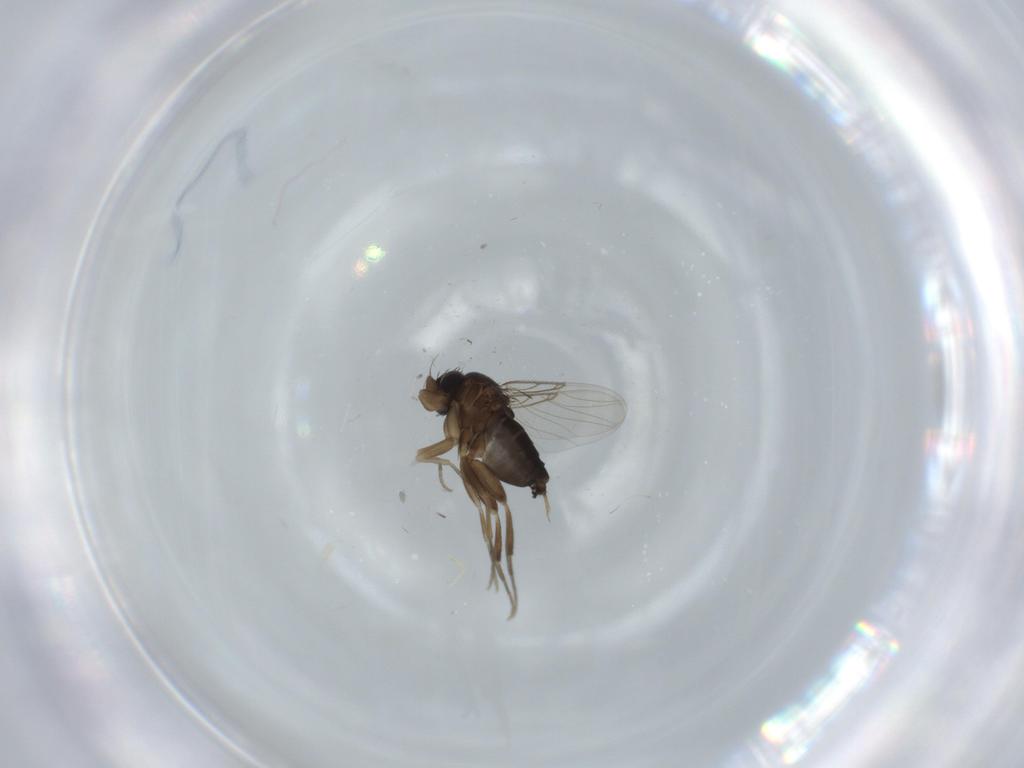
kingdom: Animalia
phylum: Arthropoda
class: Insecta
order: Diptera
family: Phoridae
